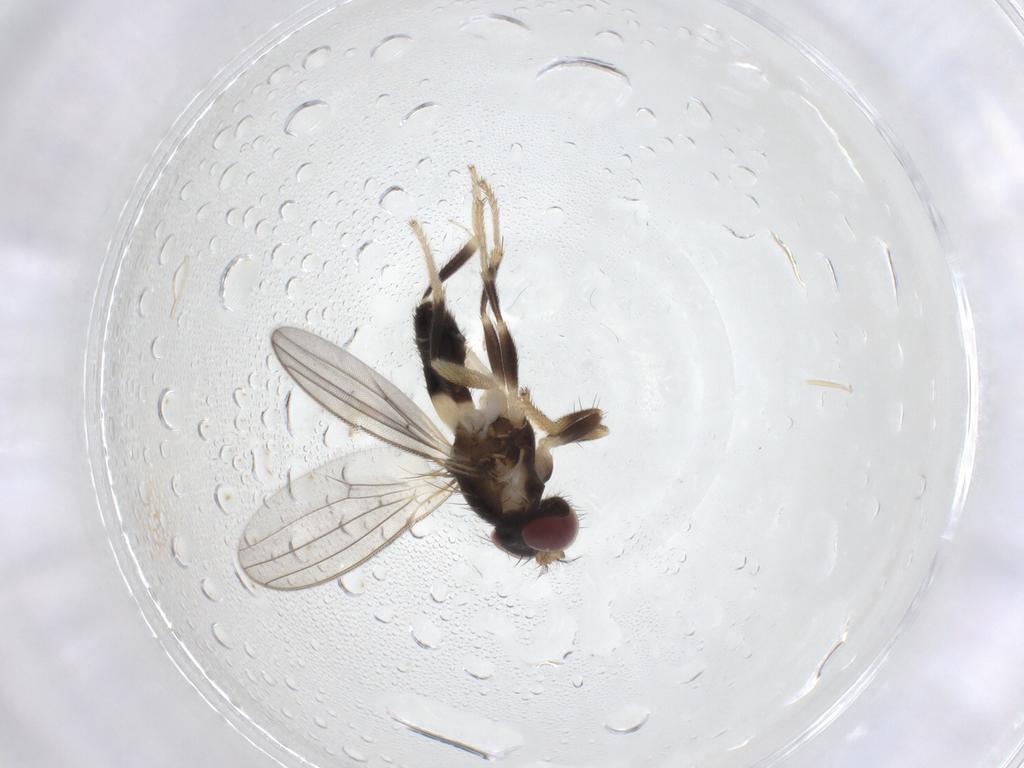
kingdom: Animalia
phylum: Arthropoda
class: Insecta
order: Diptera
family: Periscelididae
